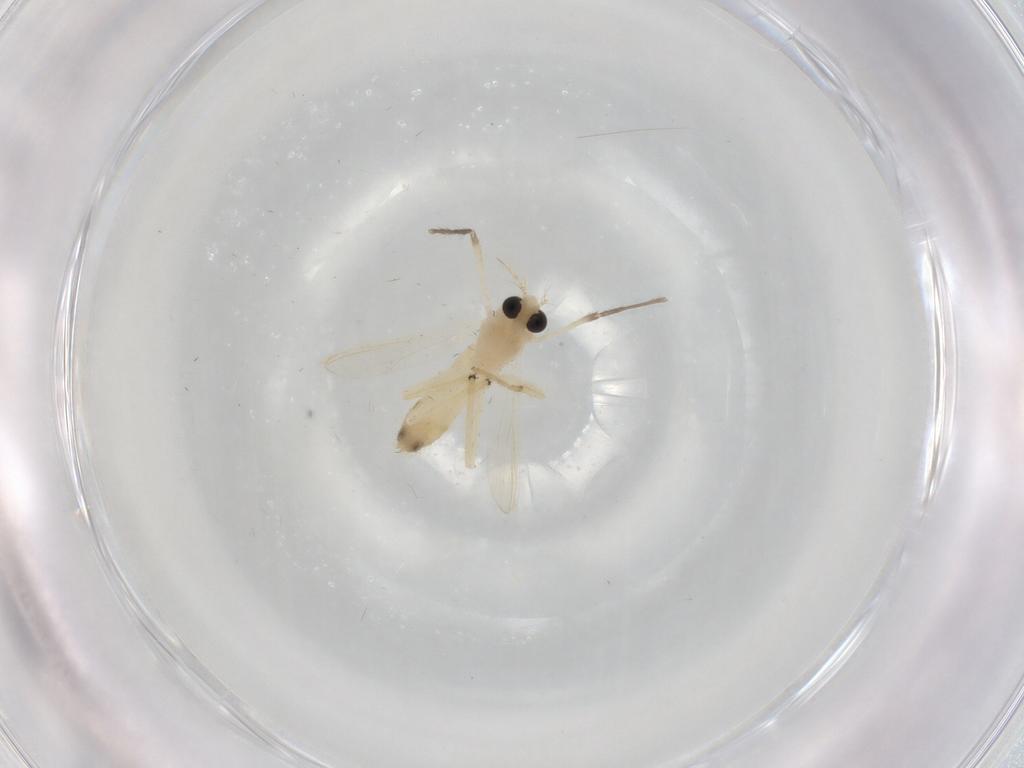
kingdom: Animalia
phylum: Arthropoda
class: Insecta
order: Diptera
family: Chironomidae
